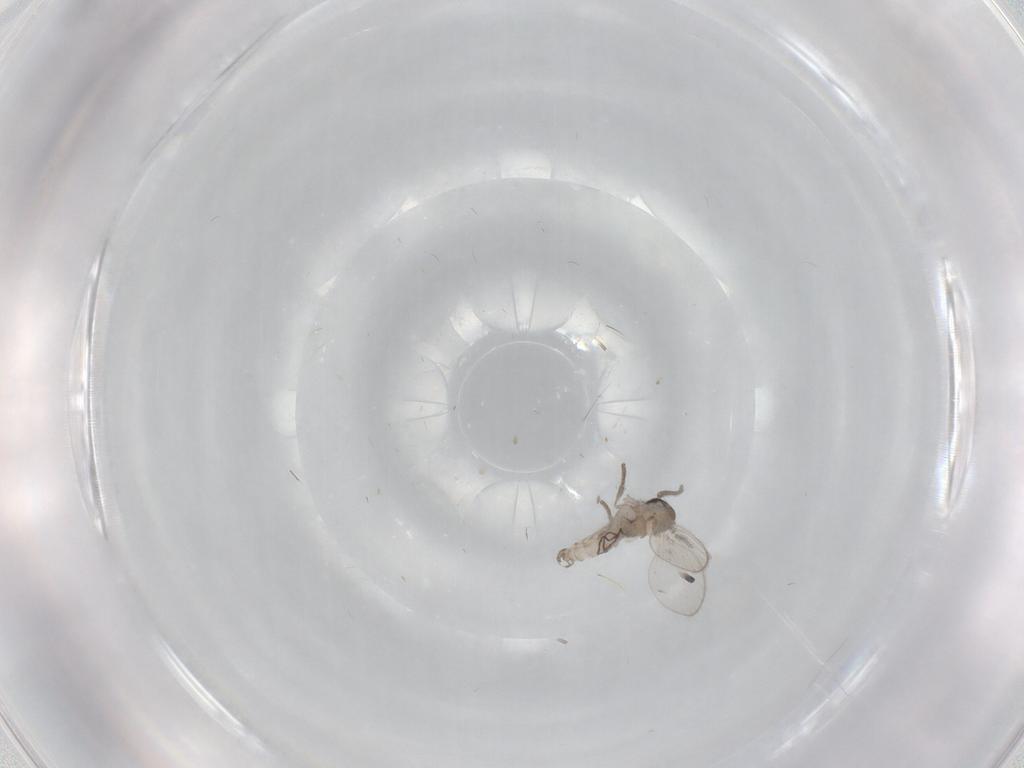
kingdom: Animalia
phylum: Arthropoda
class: Insecta
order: Diptera
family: Psychodidae
